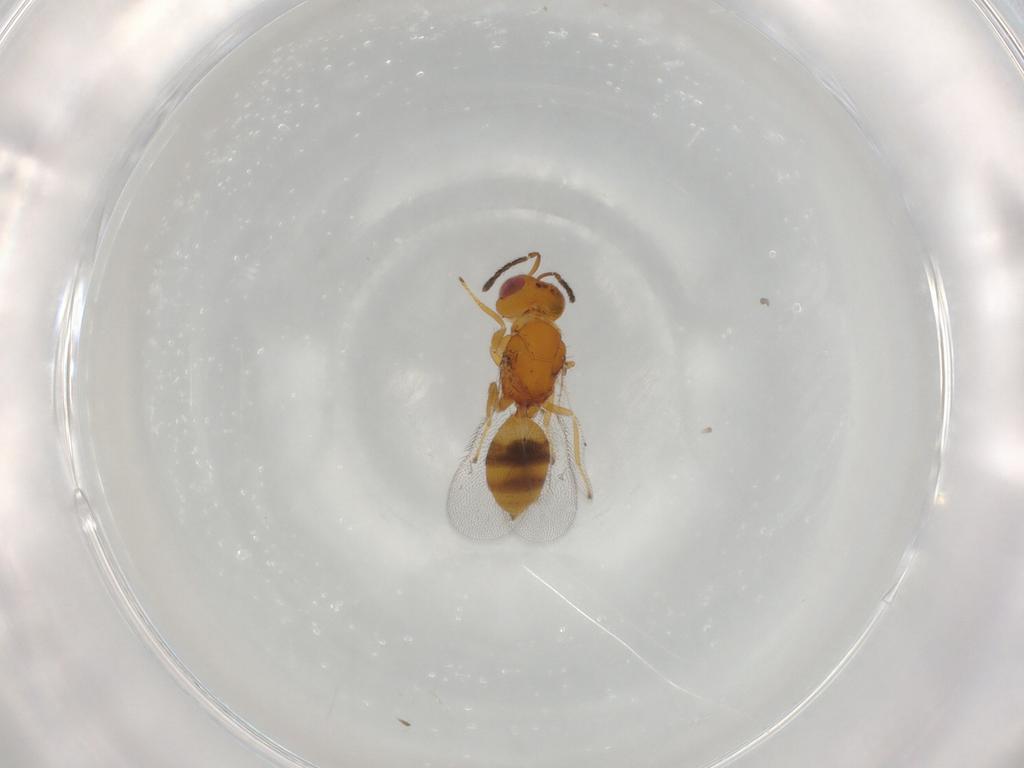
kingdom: Animalia
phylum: Arthropoda
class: Insecta
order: Hymenoptera
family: Eulophidae
